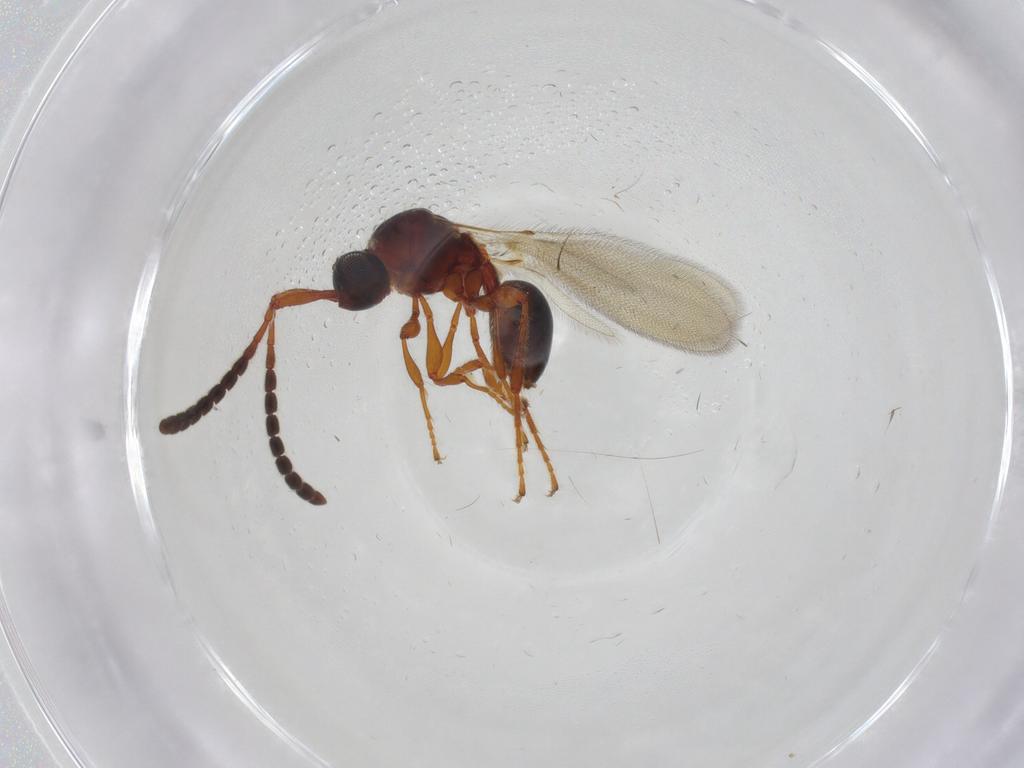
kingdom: Animalia
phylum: Arthropoda
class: Insecta
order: Hymenoptera
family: Diapriidae
